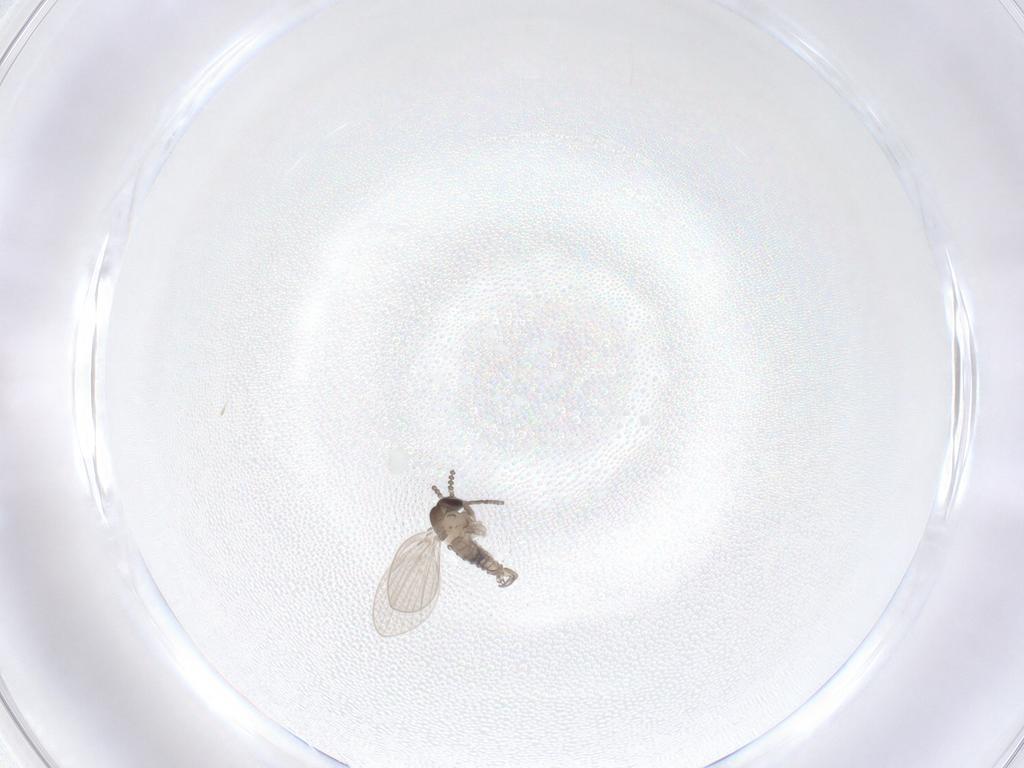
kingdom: Animalia
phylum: Arthropoda
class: Insecta
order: Diptera
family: Psychodidae
